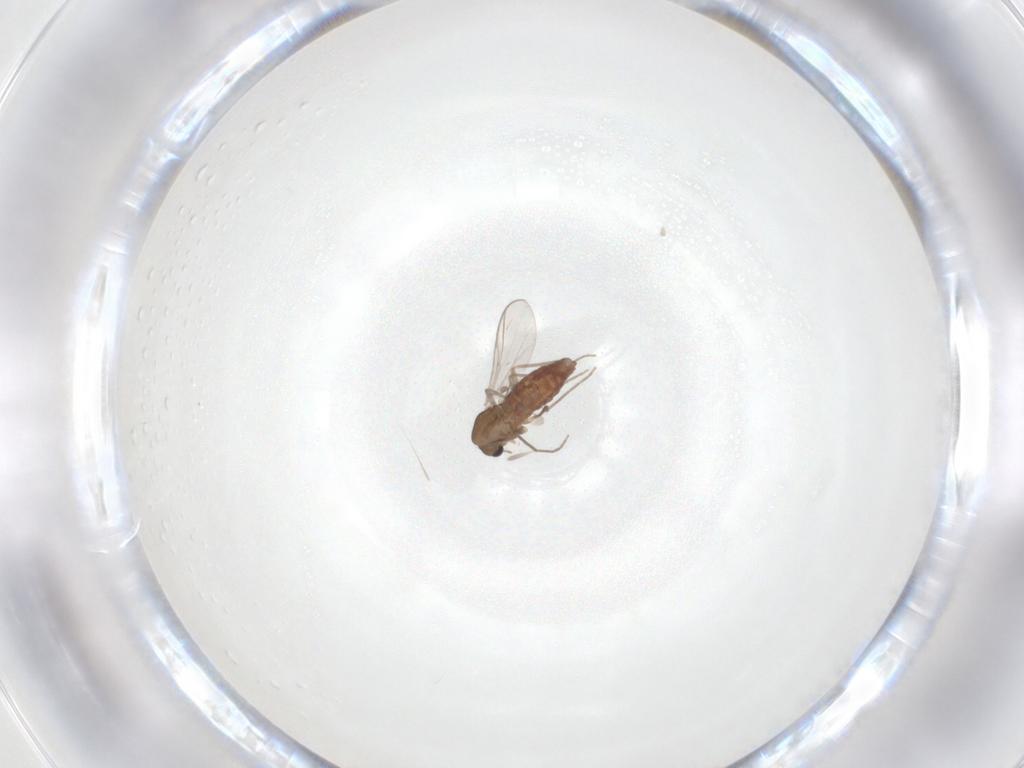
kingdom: Animalia
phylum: Arthropoda
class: Insecta
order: Diptera
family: Chironomidae
